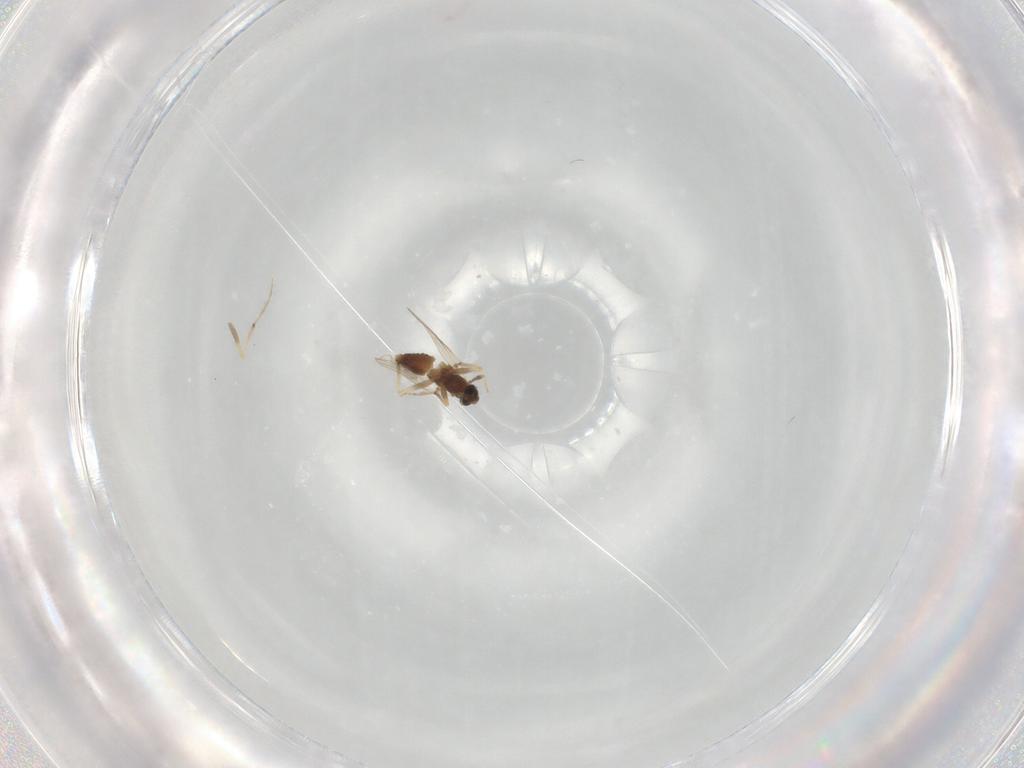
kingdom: Animalia
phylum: Arthropoda
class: Insecta
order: Diptera
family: Chironomidae
